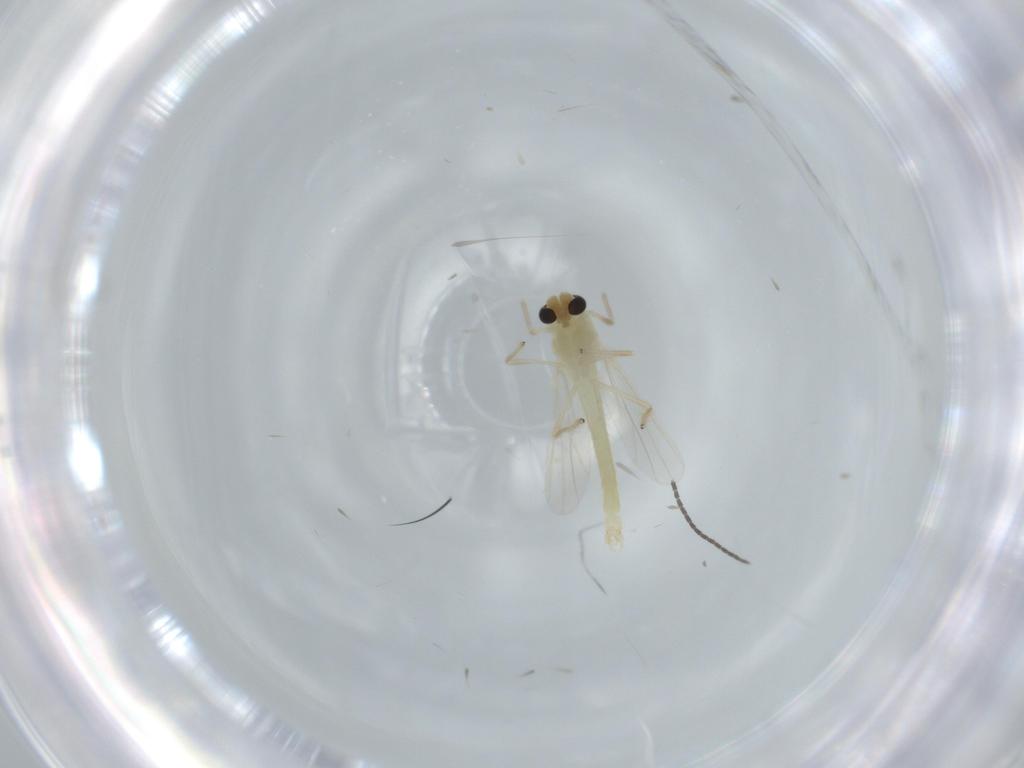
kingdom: Animalia
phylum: Arthropoda
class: Insecta
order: Diptera
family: Chironomidae
